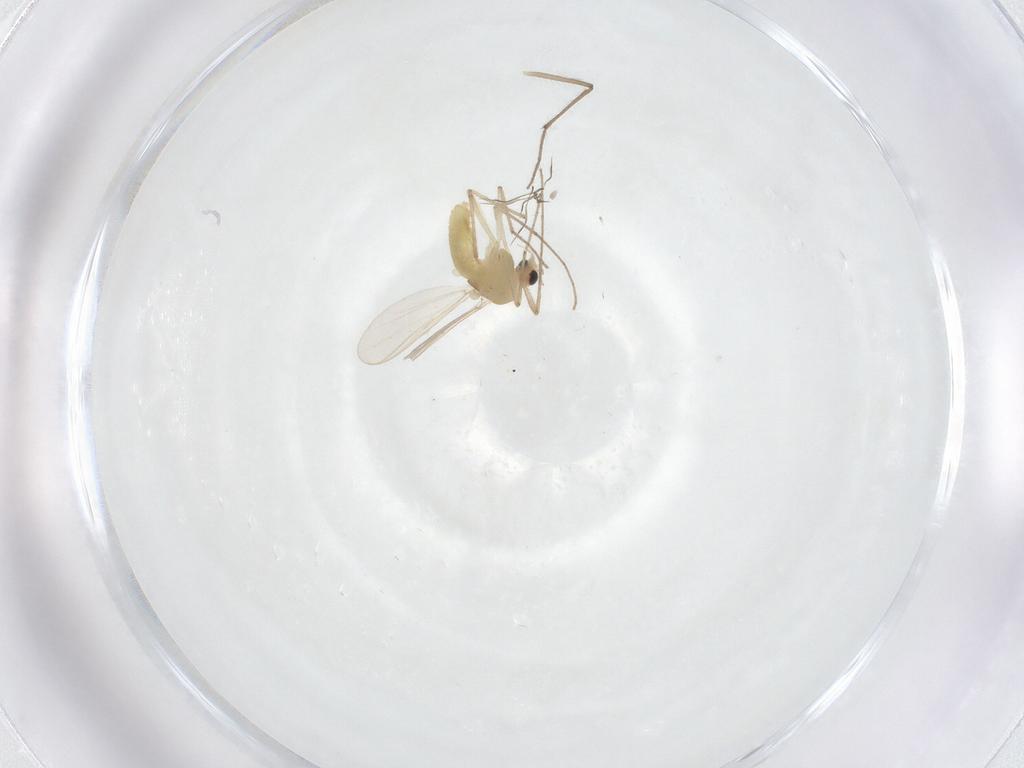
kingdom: Animalia
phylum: Arthropoda
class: Insecta
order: Diptera
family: Chironomidae
